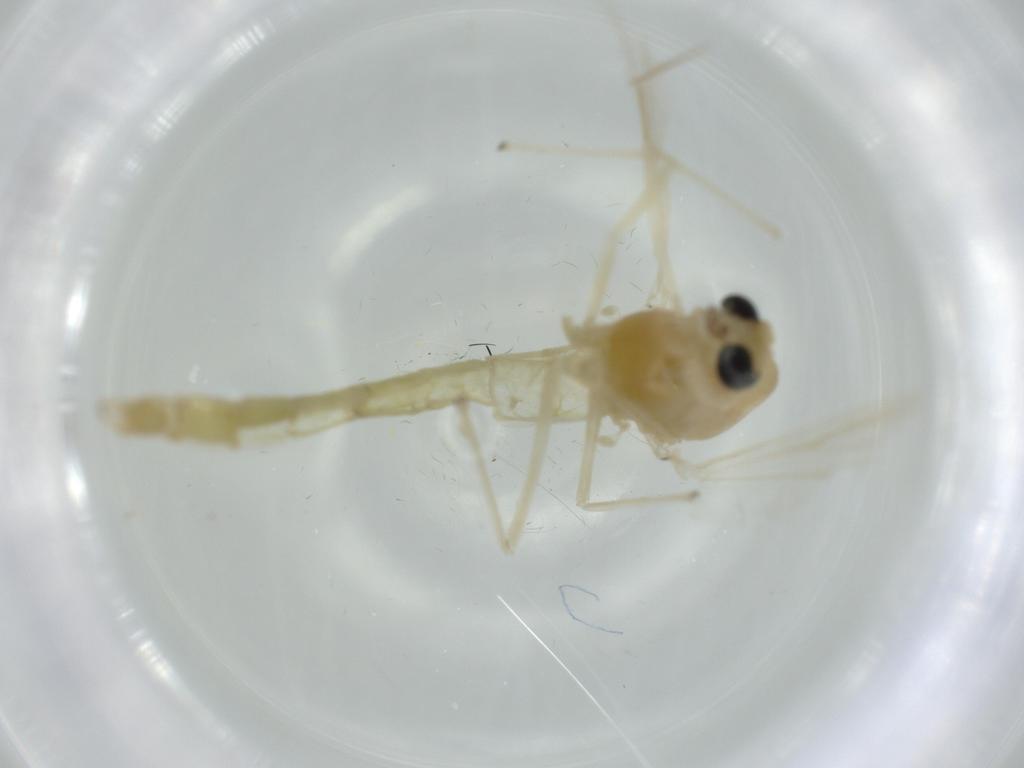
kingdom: Animalia
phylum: Arthropoda
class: Insecta
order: Diptera
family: Chironomidae
